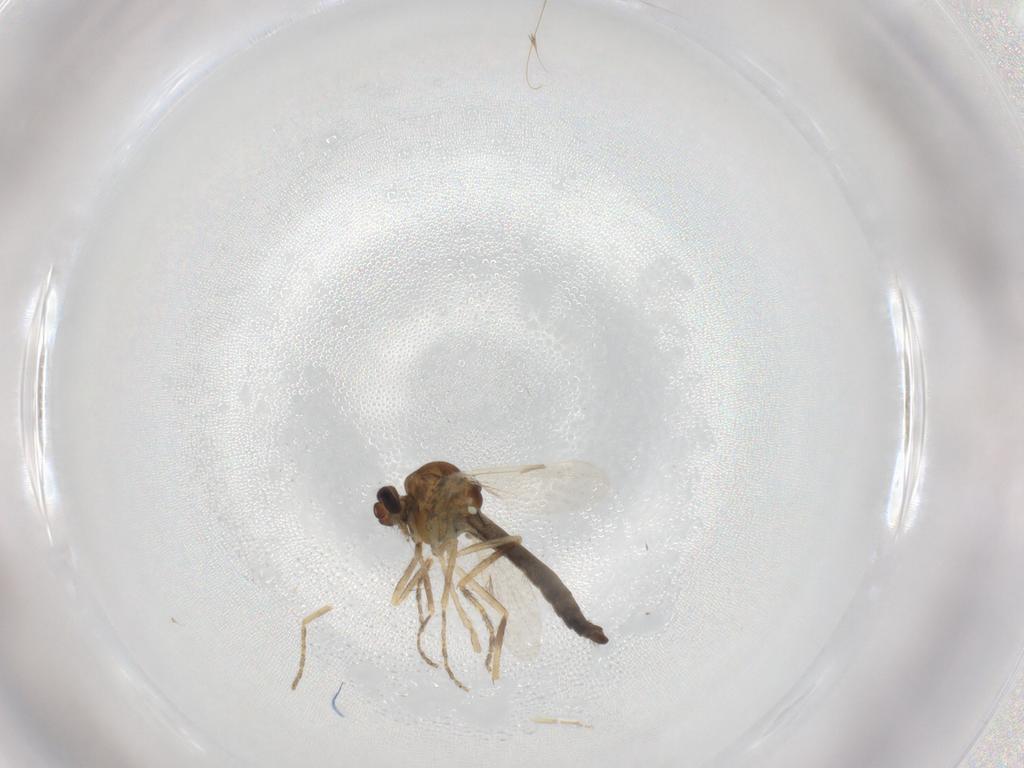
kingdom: Animalia
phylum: Arthropoda
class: Insecta
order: Diptera
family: Ceratopogonidae
